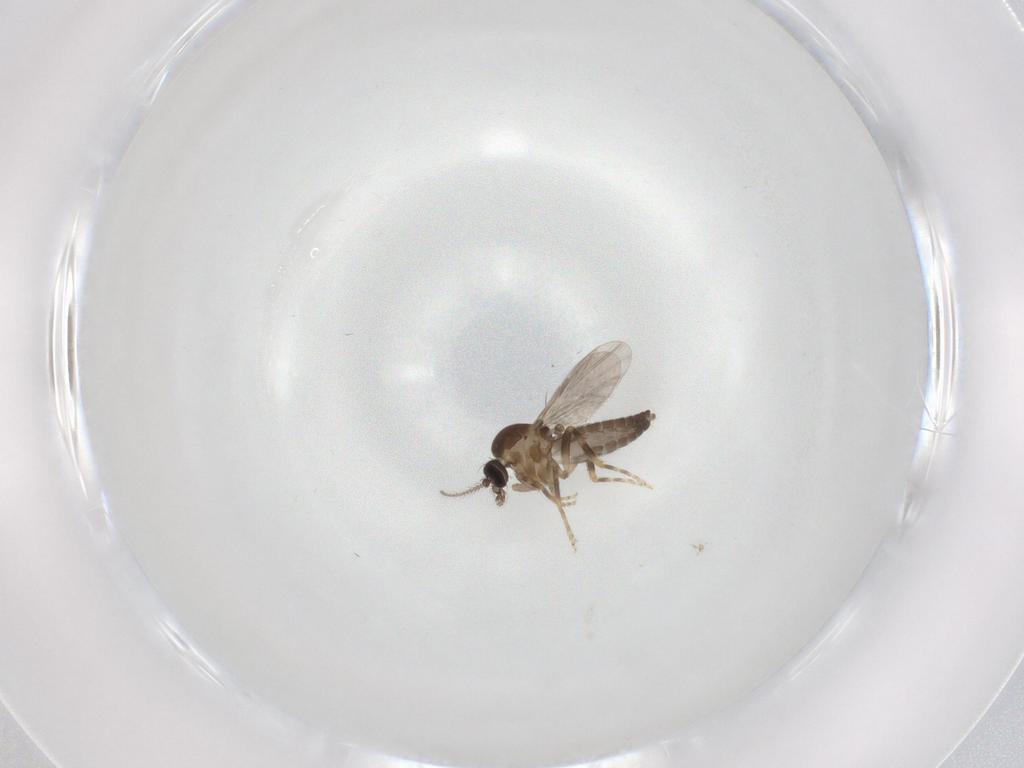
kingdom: Animalia
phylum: Arthropoda
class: Insecta
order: Diptera
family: Ceratopogonidae
